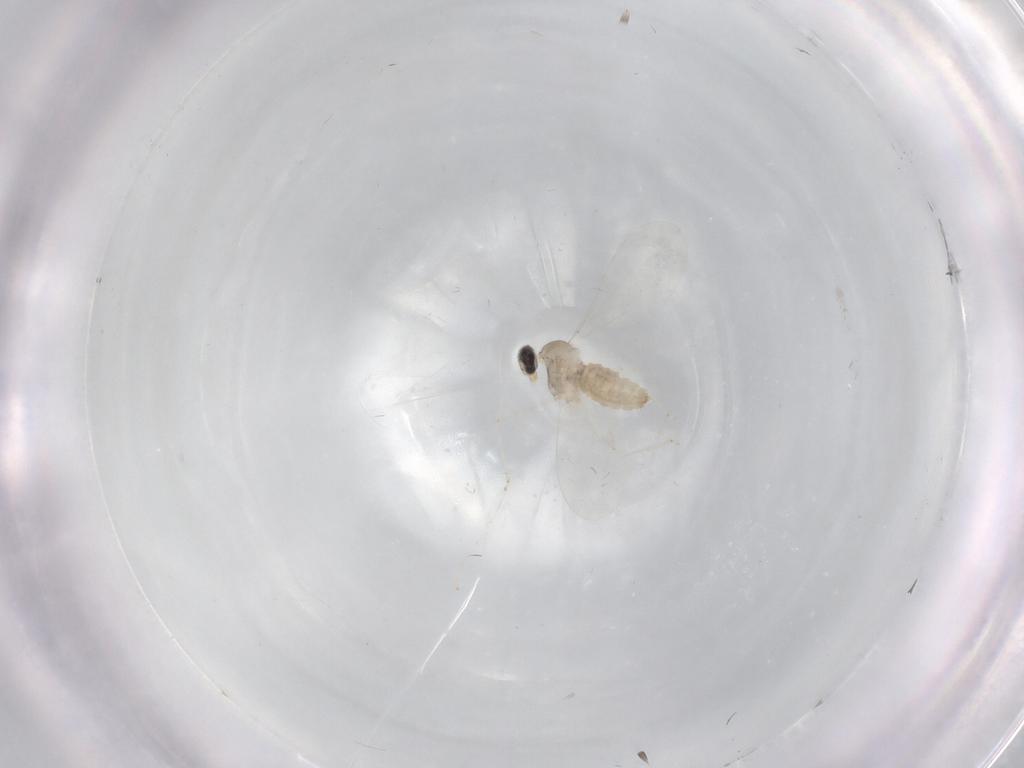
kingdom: Animalia
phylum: Arthropoda
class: Insecta
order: Diptera
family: Sciaridae
